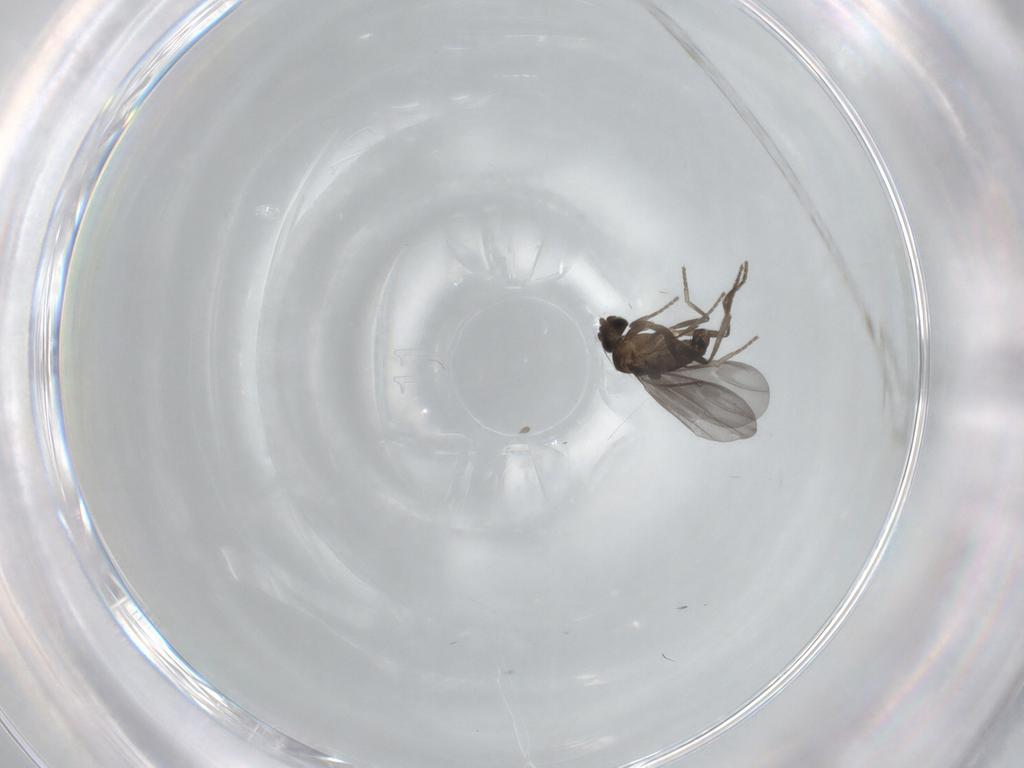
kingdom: Animalia
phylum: Arthropoda
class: Insecta
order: Diptera
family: Phoridae
